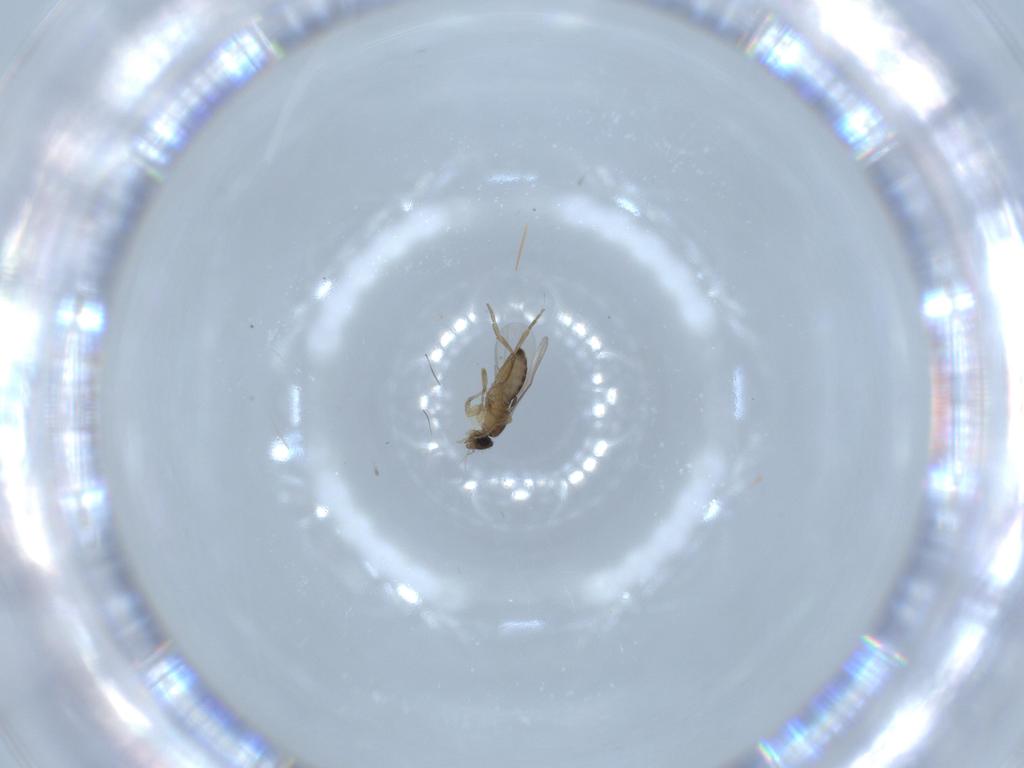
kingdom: Animalia
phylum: Arthropoda
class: Insecta
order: Diptera
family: Phoridae
